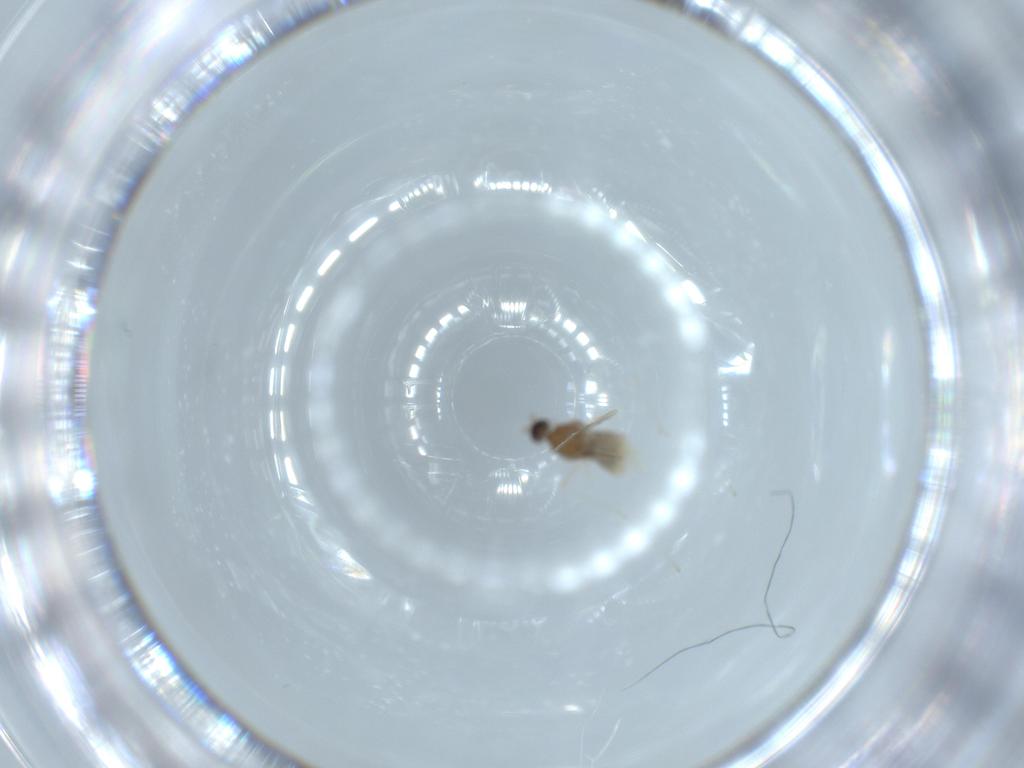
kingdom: Animalia
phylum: Arthropoda
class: Insecta
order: Diptera
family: Cecidomyiidae
